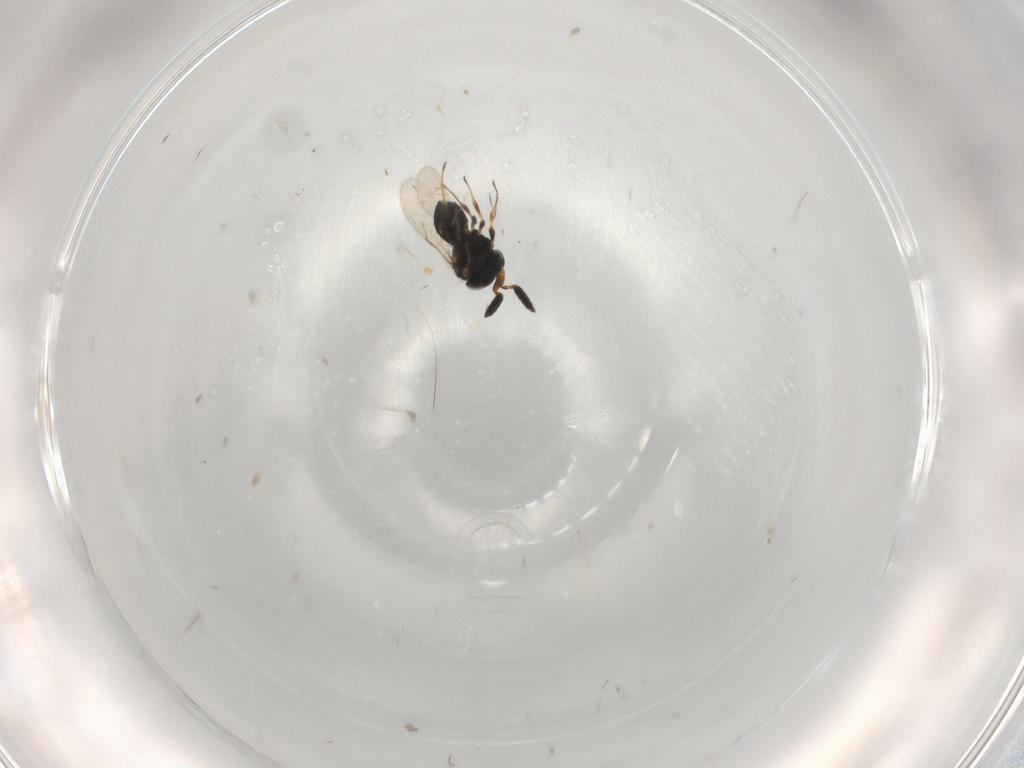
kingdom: Animalia
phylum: Arthropoda
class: Insecta
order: Hymenoptera
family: Scelionidae
